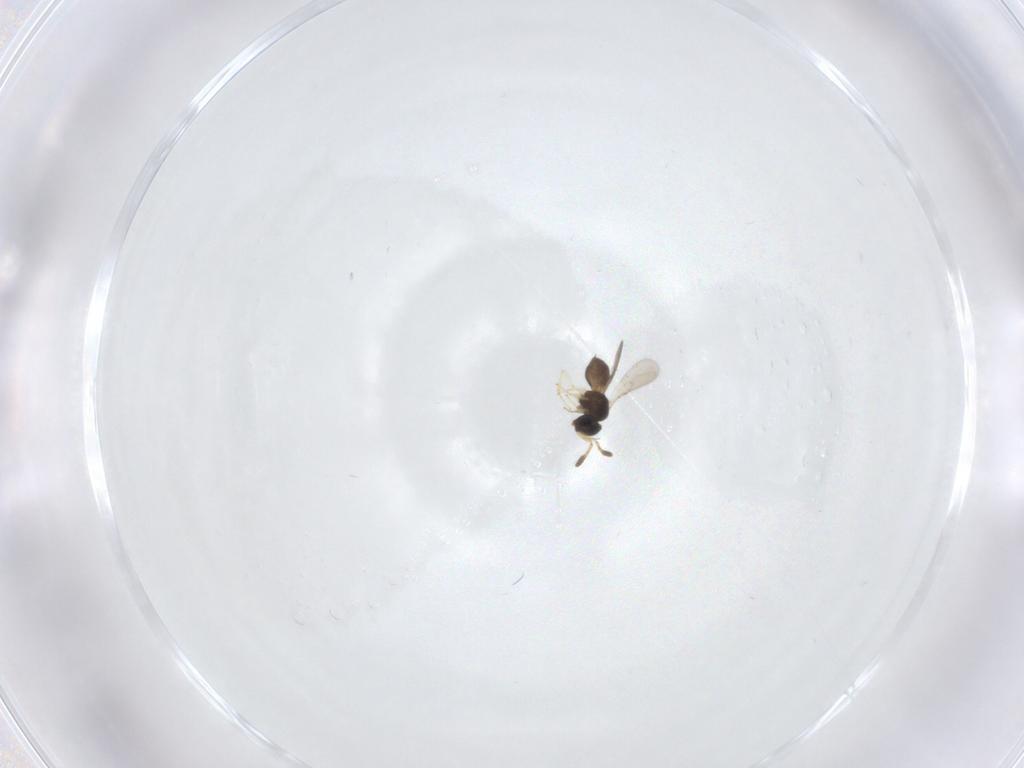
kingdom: Animalia
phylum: Arthropoda
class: Insecta
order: Hymenoptera
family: Scelionidae
